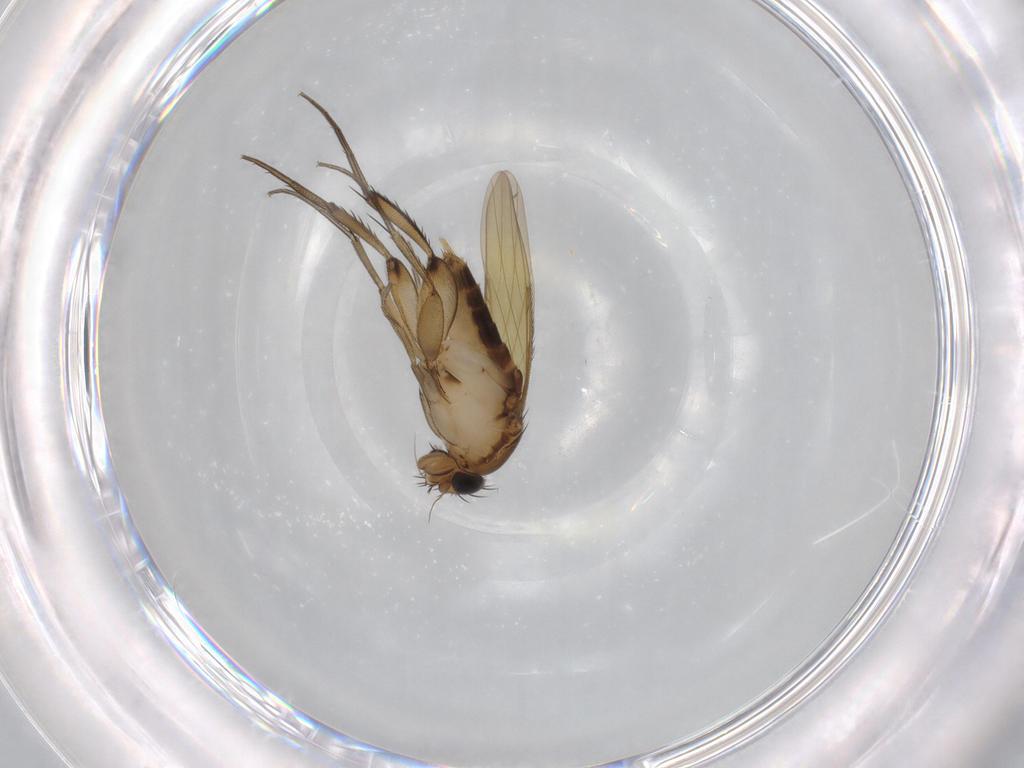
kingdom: Animalia
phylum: Arthropoda
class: Insecta
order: Diptera
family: Phoridae
